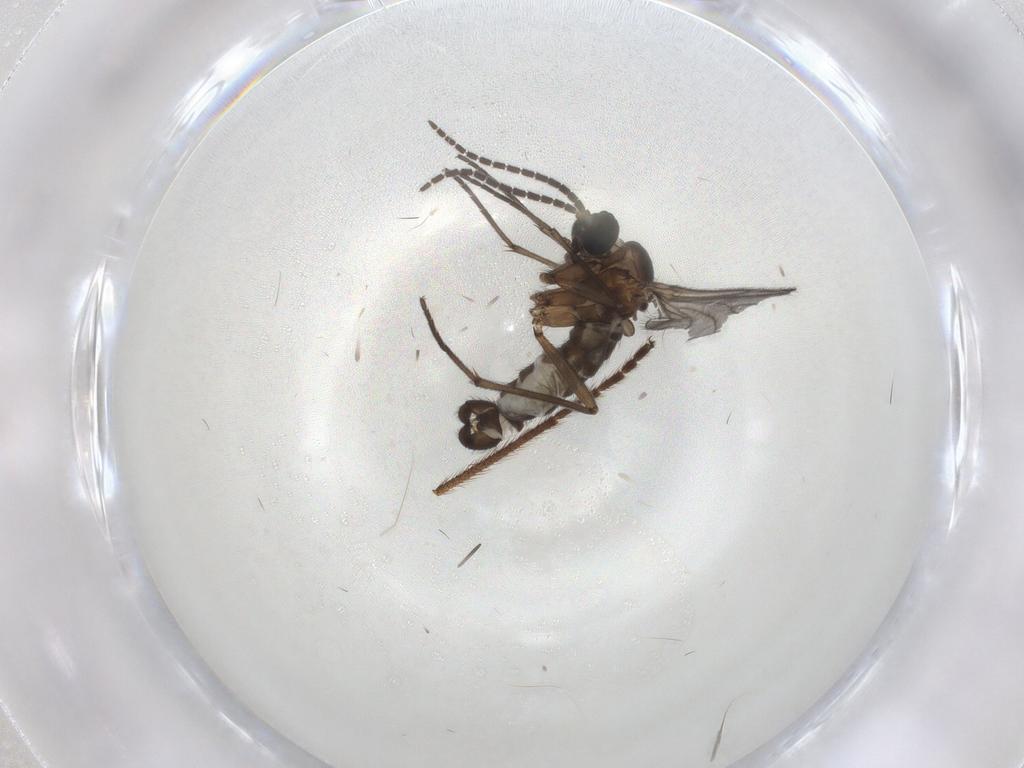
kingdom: Animalia
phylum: Arthropoda
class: Insecta
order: Diptera
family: Sciaridae
